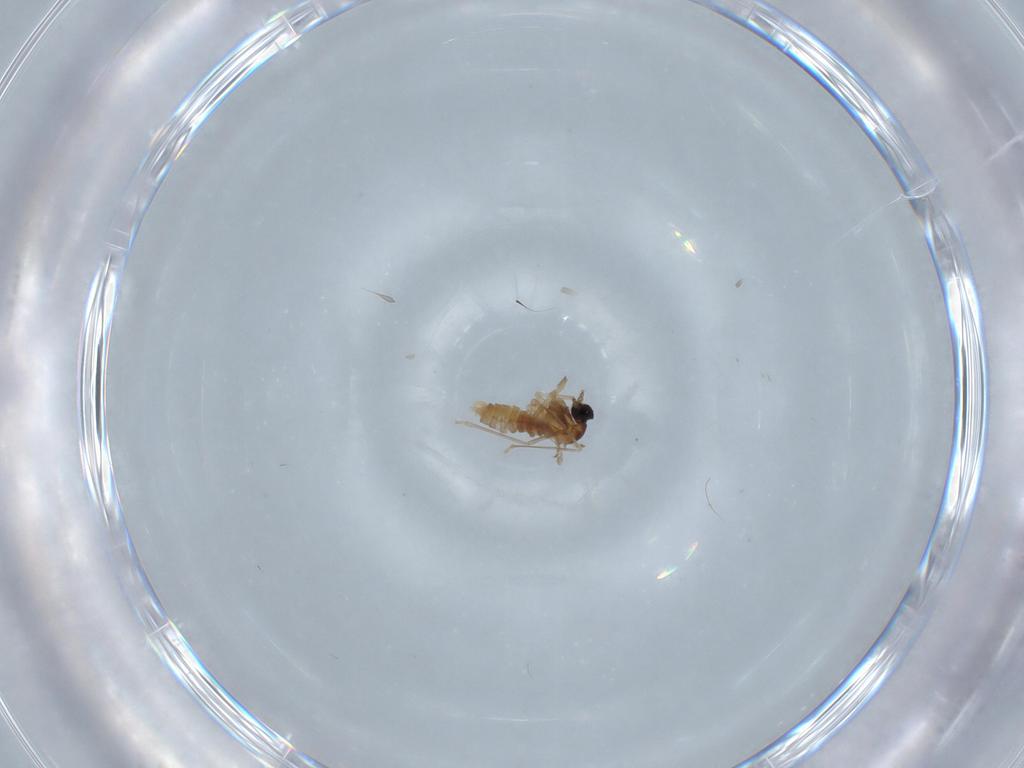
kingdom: Animalia
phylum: Arthropoda
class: Insecta
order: Diptera
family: Cecidomyiidae
